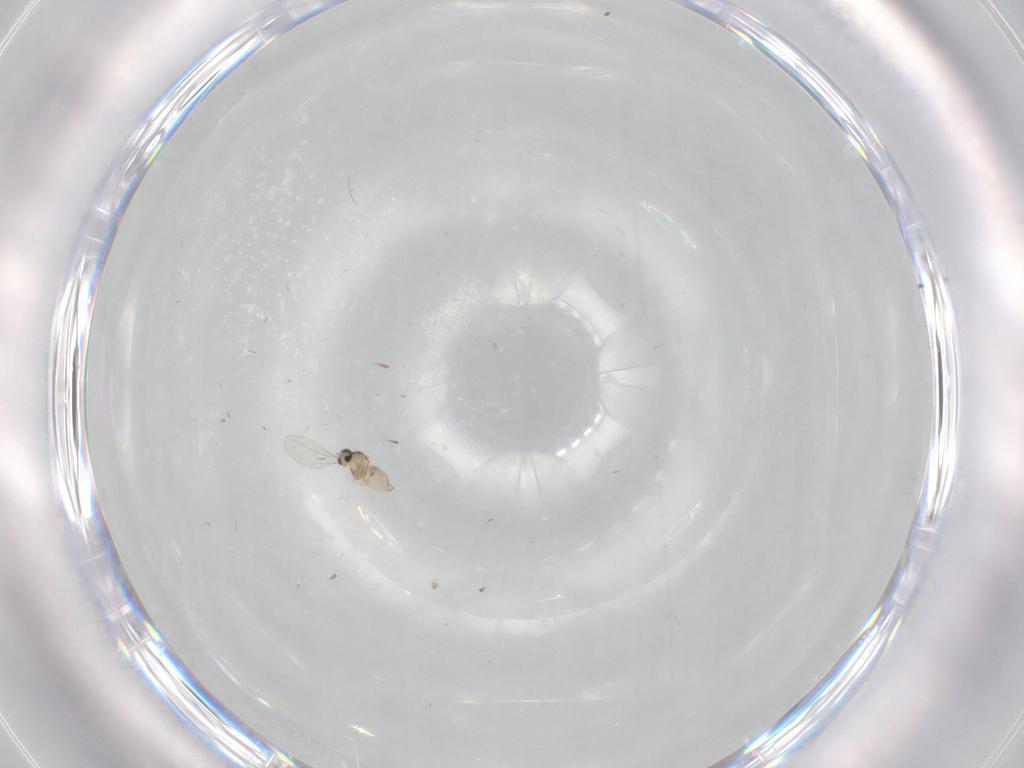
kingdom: Animalia
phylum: Arthropoda
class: Insecta
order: Diptera
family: Cecidomyiidae
